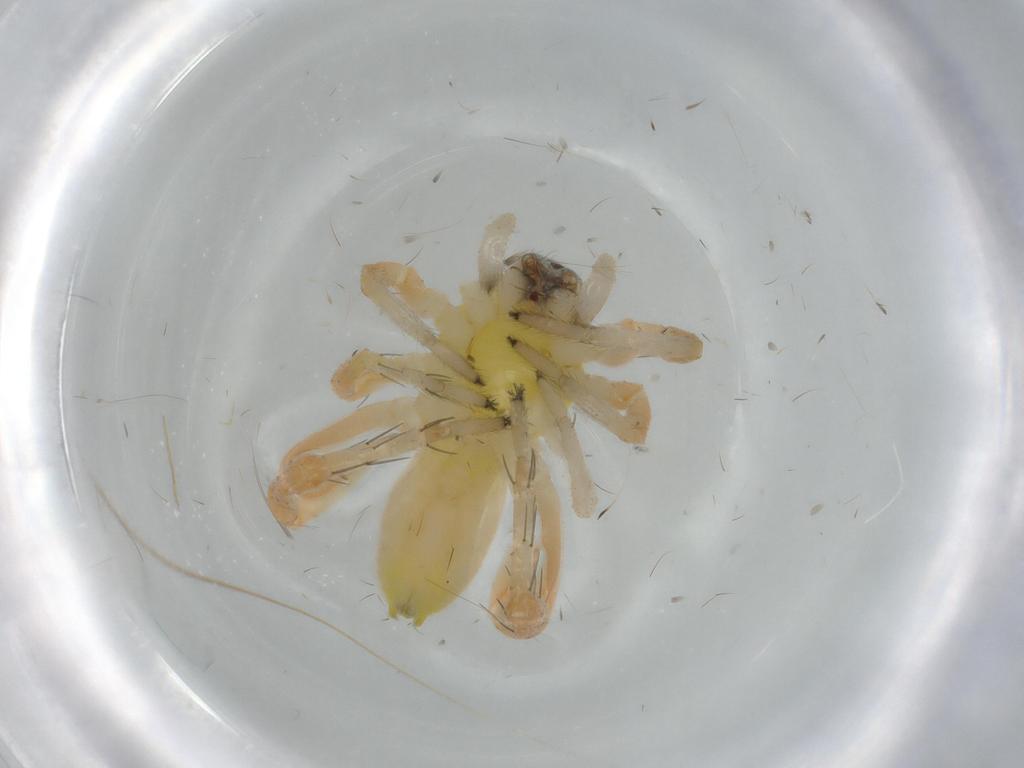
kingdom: Animalia
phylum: Arthropoda
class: Arachnida
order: Araneae
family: Anyphaenidae
